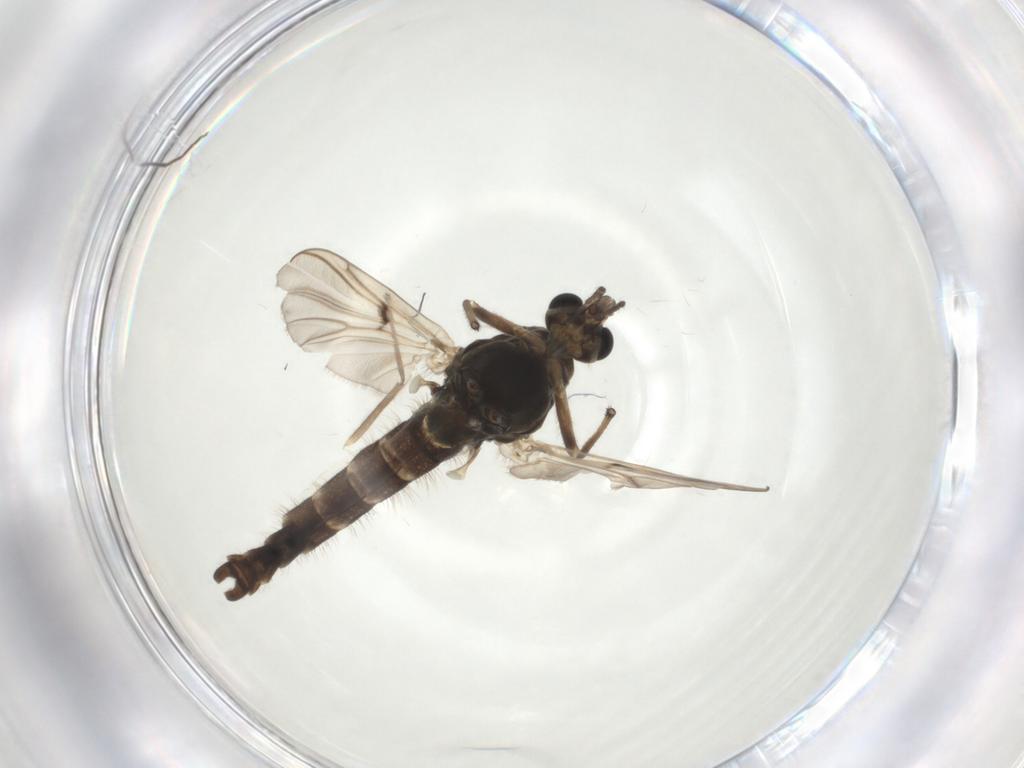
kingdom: Animalia
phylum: Arthropoda
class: Insecta
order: Diptera
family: Chironomidae
